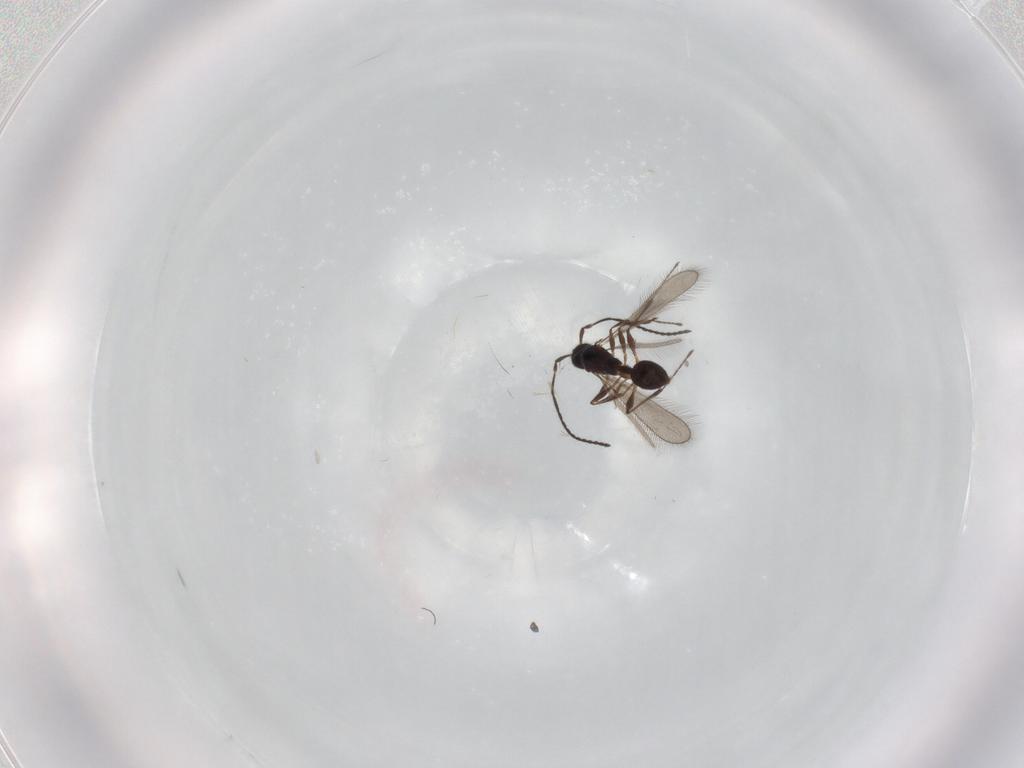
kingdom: Animalia
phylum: Arthropoda
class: Insecta
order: Hymenoptera
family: Diapriidae
